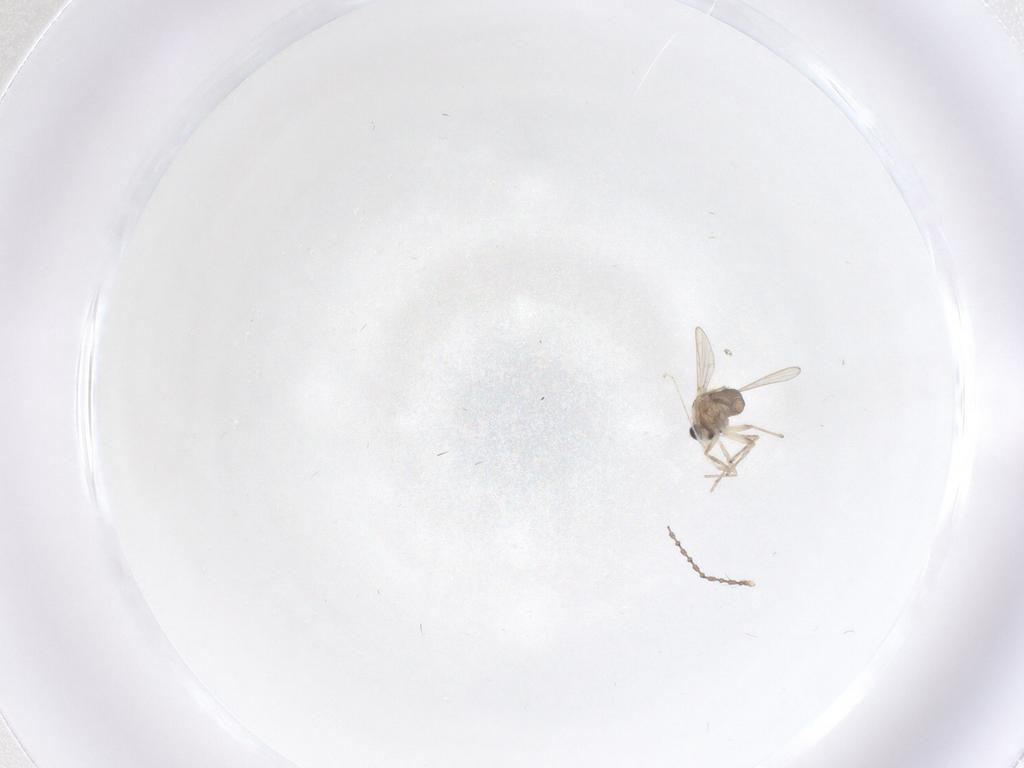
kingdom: Animalia
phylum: Arthropoda
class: Insecta
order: Diptera
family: Chironomidae
